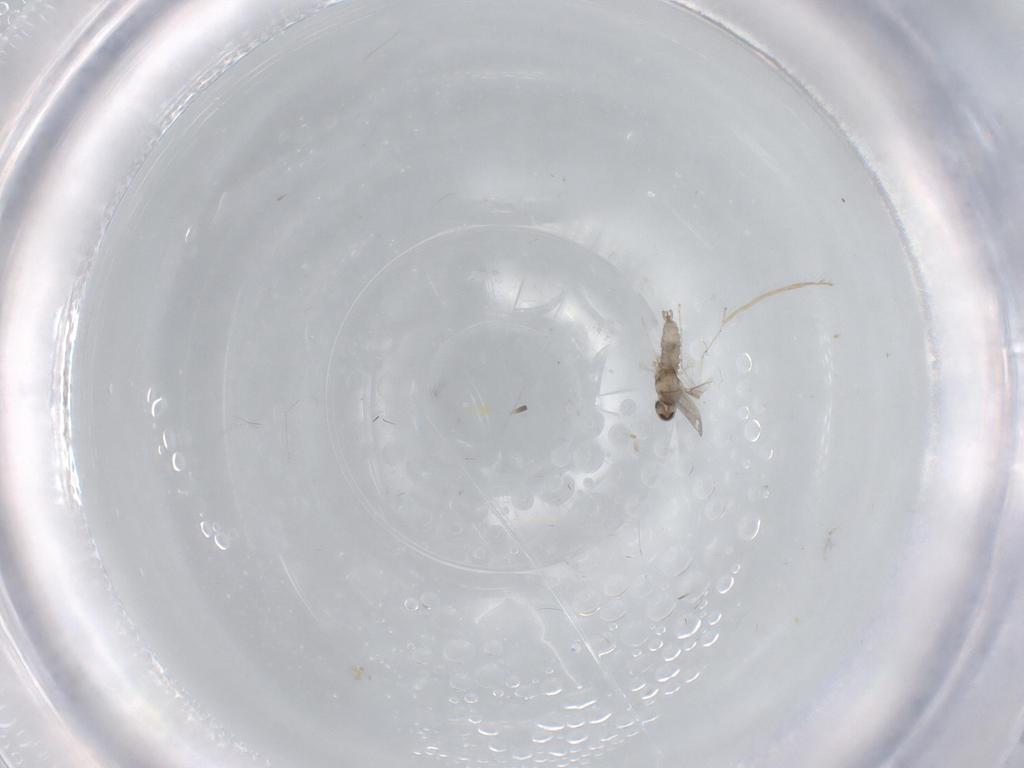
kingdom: Animalia
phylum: Arthropoda
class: Insecta
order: Diptera
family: Cecidomyiidae
